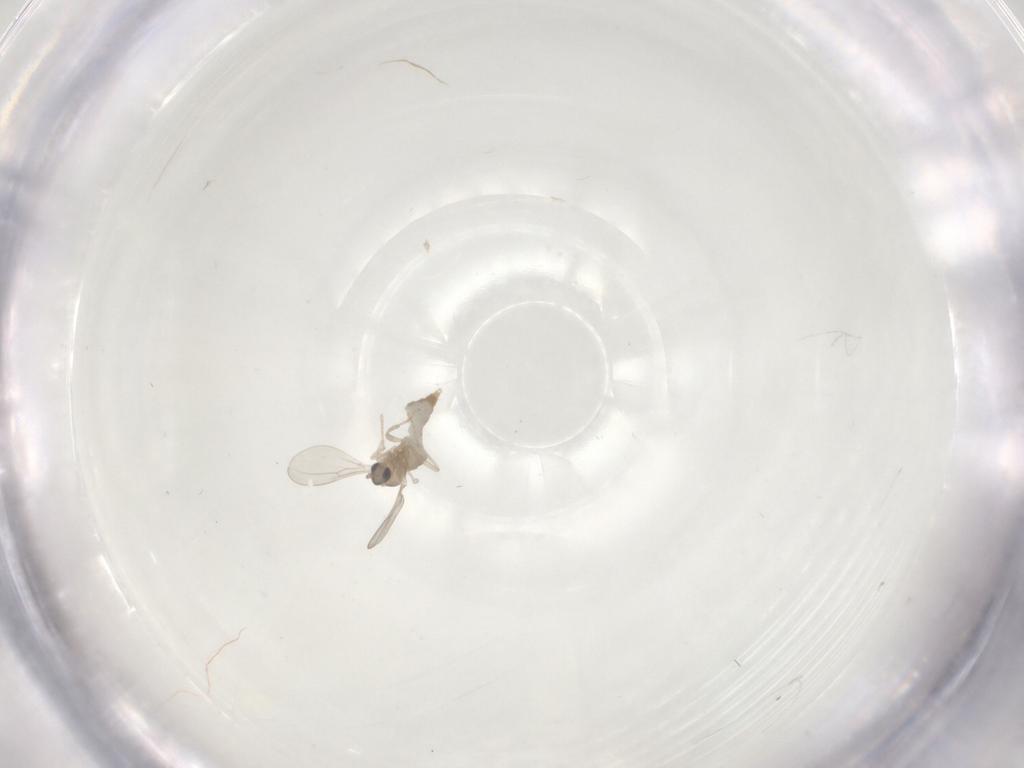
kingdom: Animalia
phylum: Arthropoda
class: Insecta
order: Diptera
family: Cecidomyiidae
